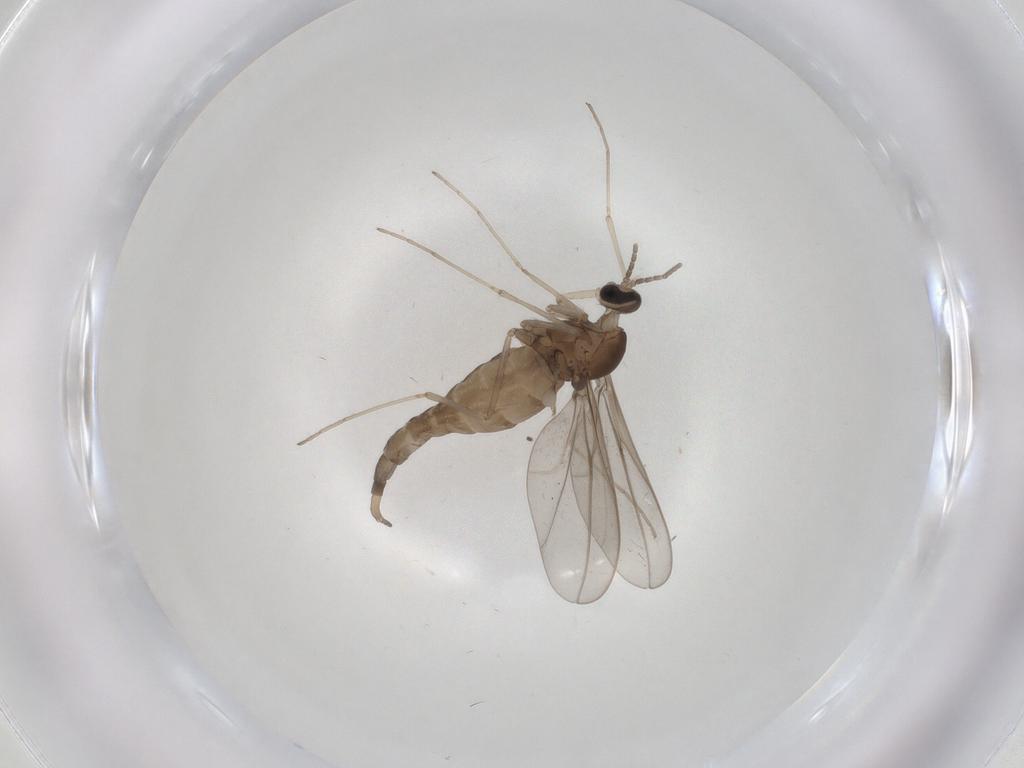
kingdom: Animalia
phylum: Arthropoda
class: Insecta
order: Diptera
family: Cecidomyiidae
